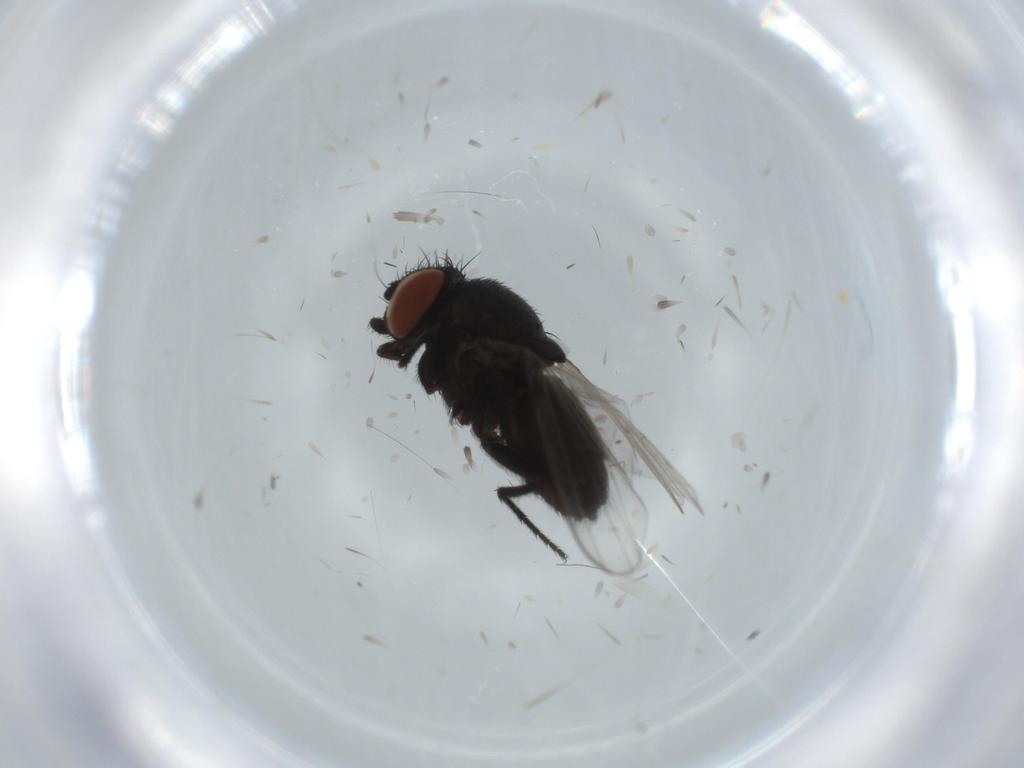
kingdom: Animalia
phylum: Arthropoda
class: Insecta
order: Diptera
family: Milichiidae
